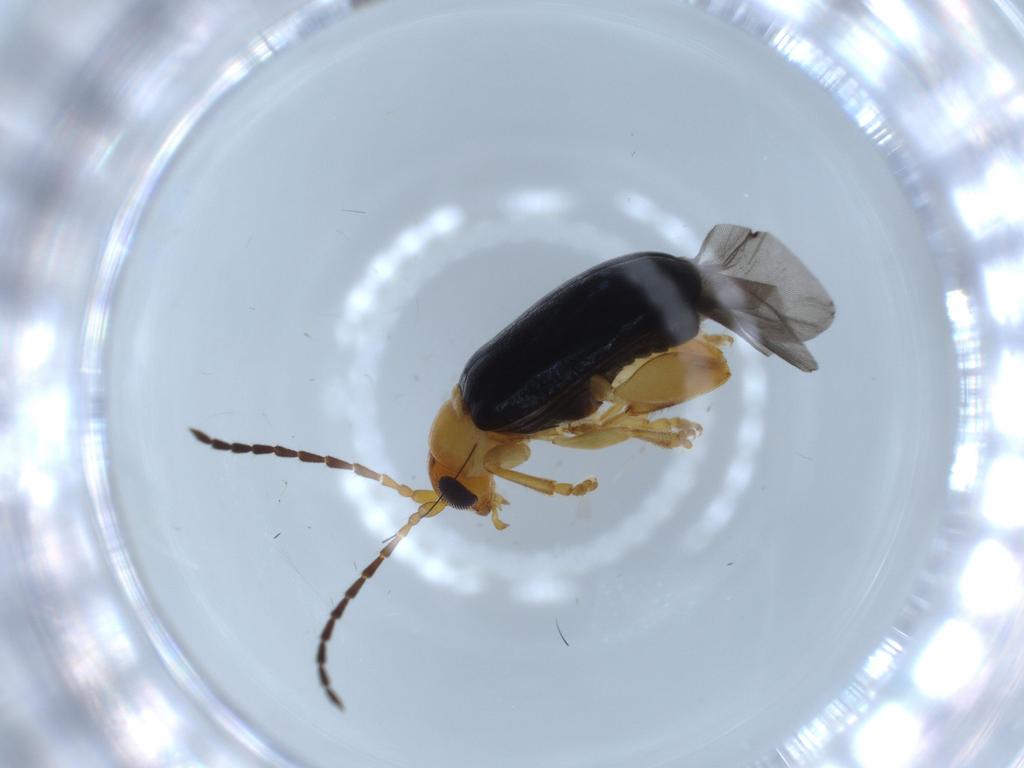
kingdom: Animalia
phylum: Arthropoda
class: Insecta
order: Coleoptera
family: Chrysomelidae
